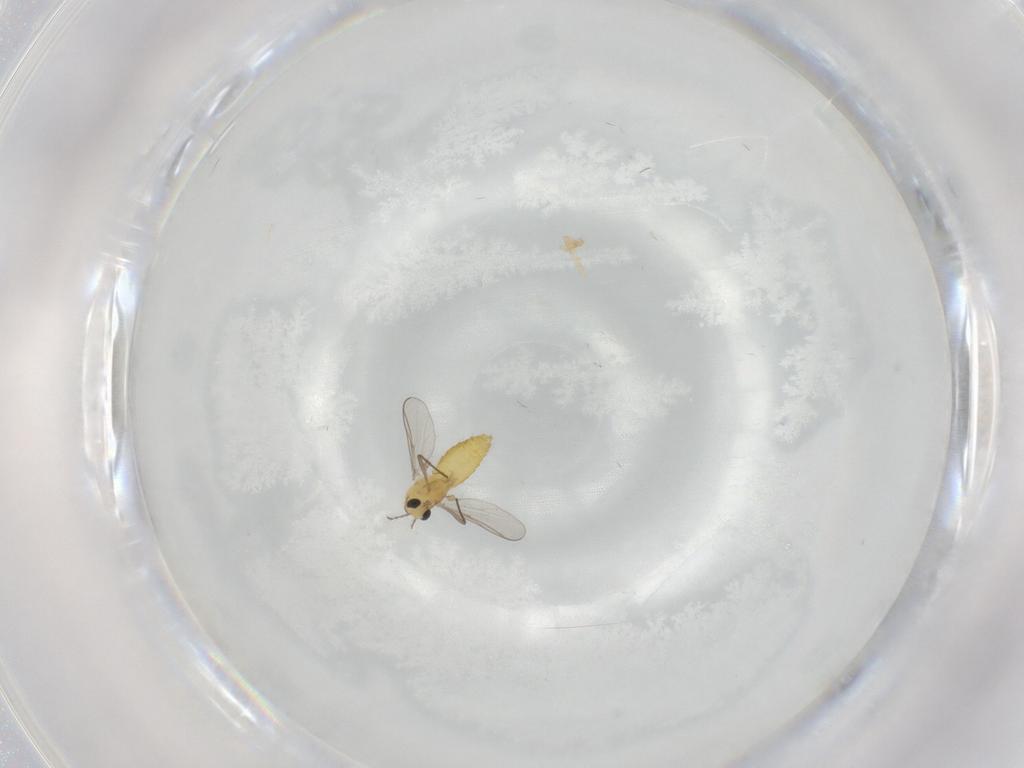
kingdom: Animalia
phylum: Arthropoda
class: Insecta
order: Diptera
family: Chironomidae
